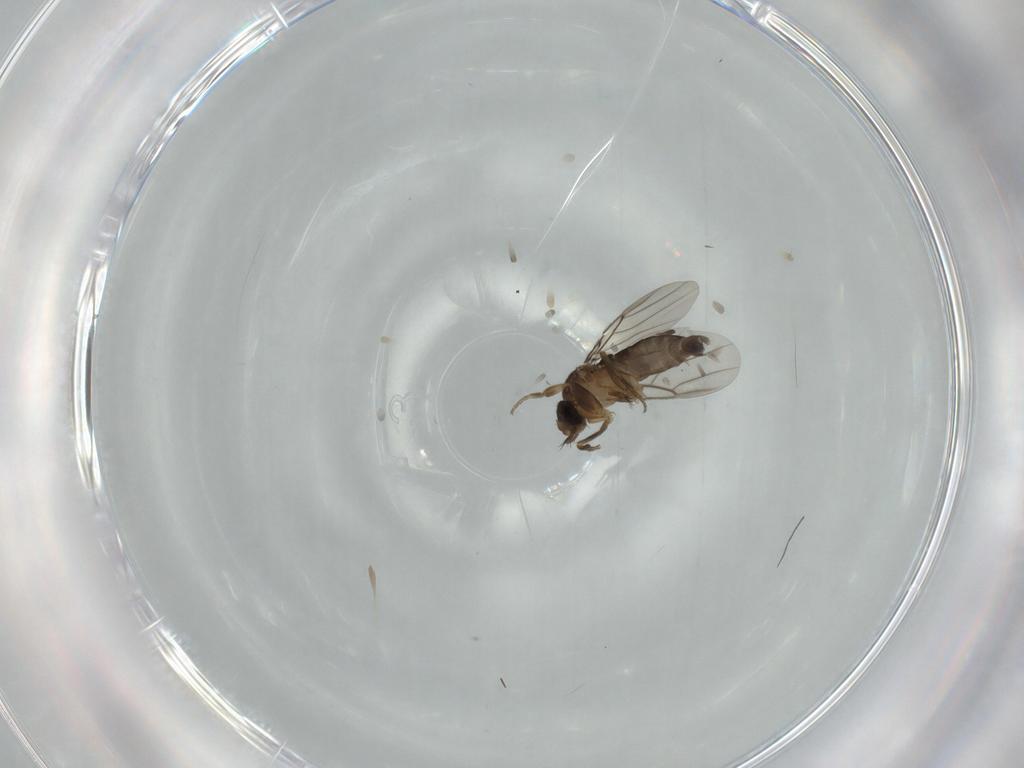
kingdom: Animalia
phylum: Arthropoda
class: Insecta
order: Diptera
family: Phoridae
